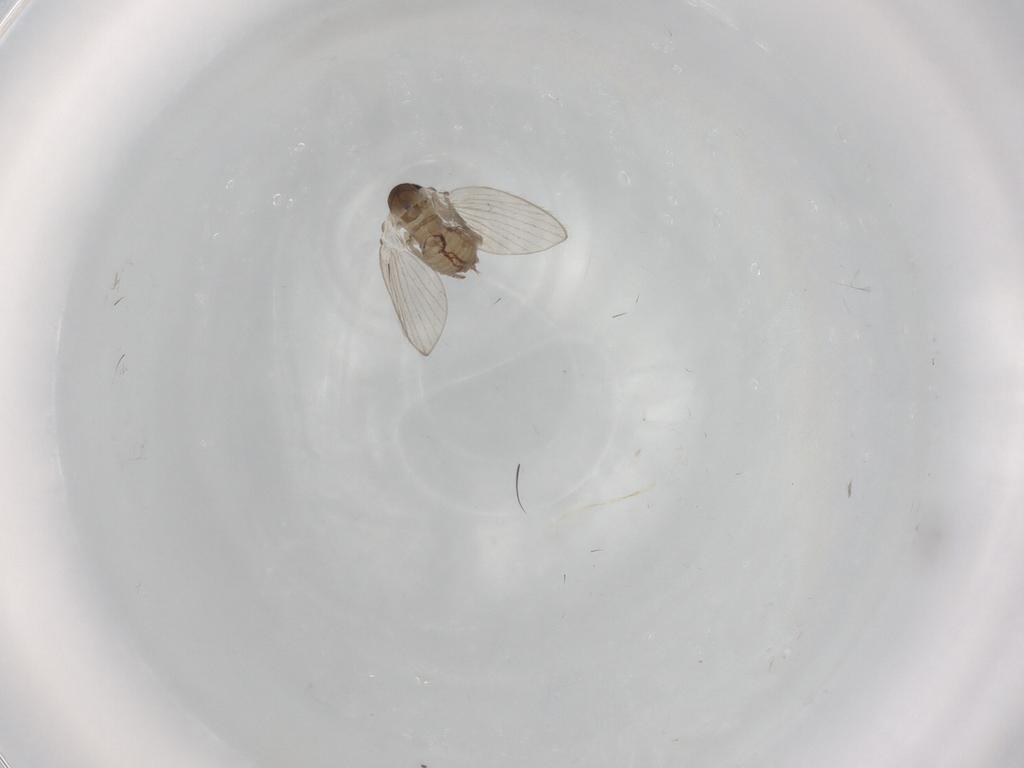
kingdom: Animalia
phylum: Arthropoda
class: Insecta
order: Diptera
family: Psychodidae
